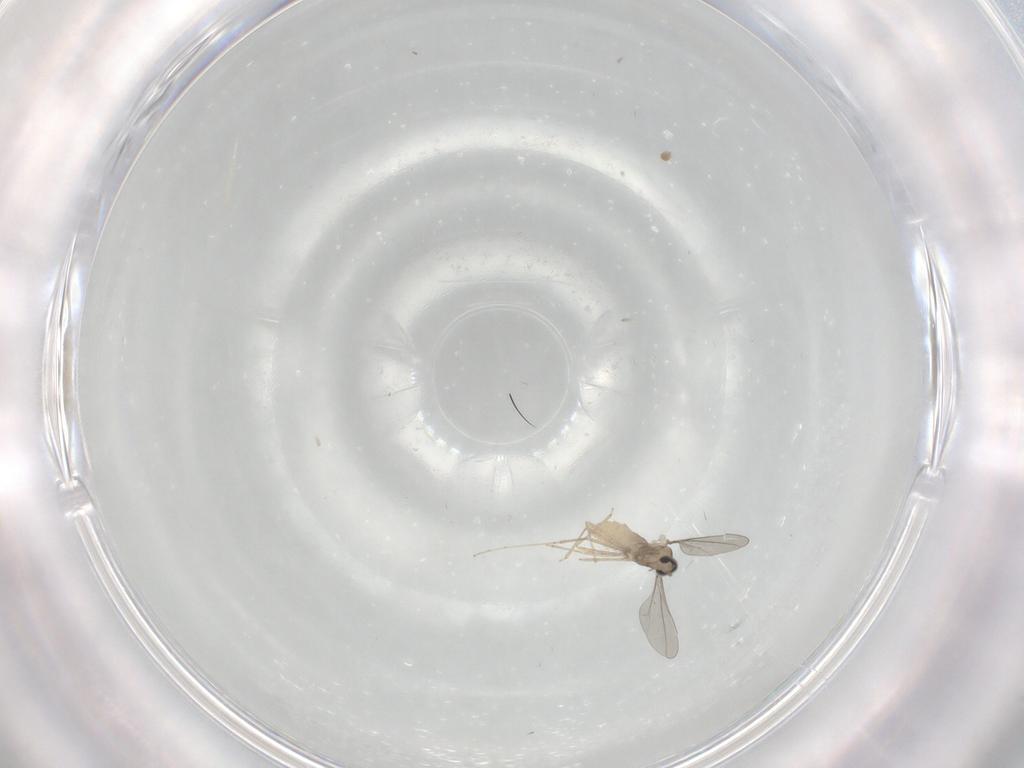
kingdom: Animalia
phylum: Arthropoda
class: Insecta
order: Diptera
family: Cecidomyiidae
